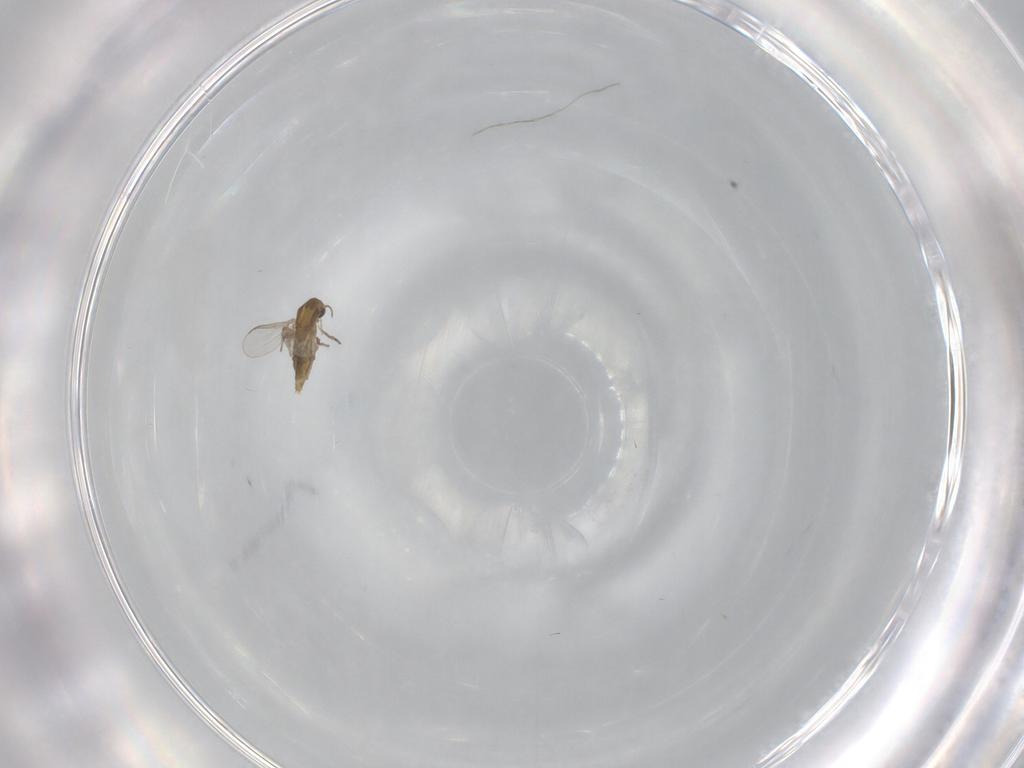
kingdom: Animalia
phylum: Arthropoda
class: Insecta
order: Diptera
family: Chironomidae
